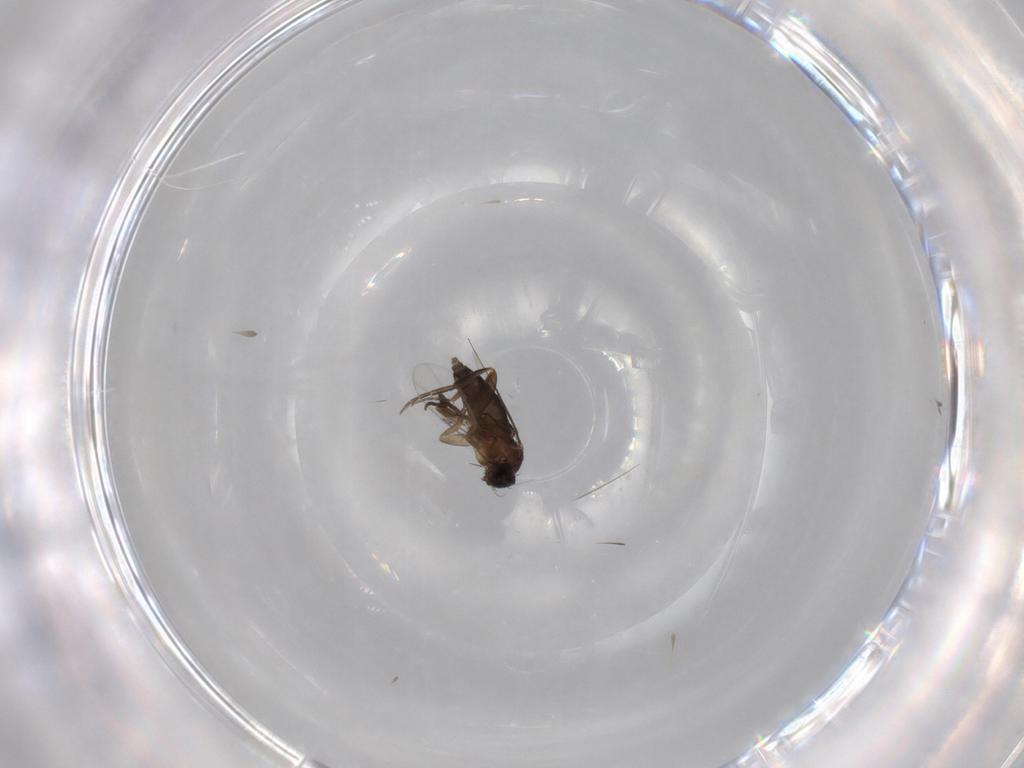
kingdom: Animalia
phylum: Arthropoda
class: Insecta
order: Diptera
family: Phoridae
